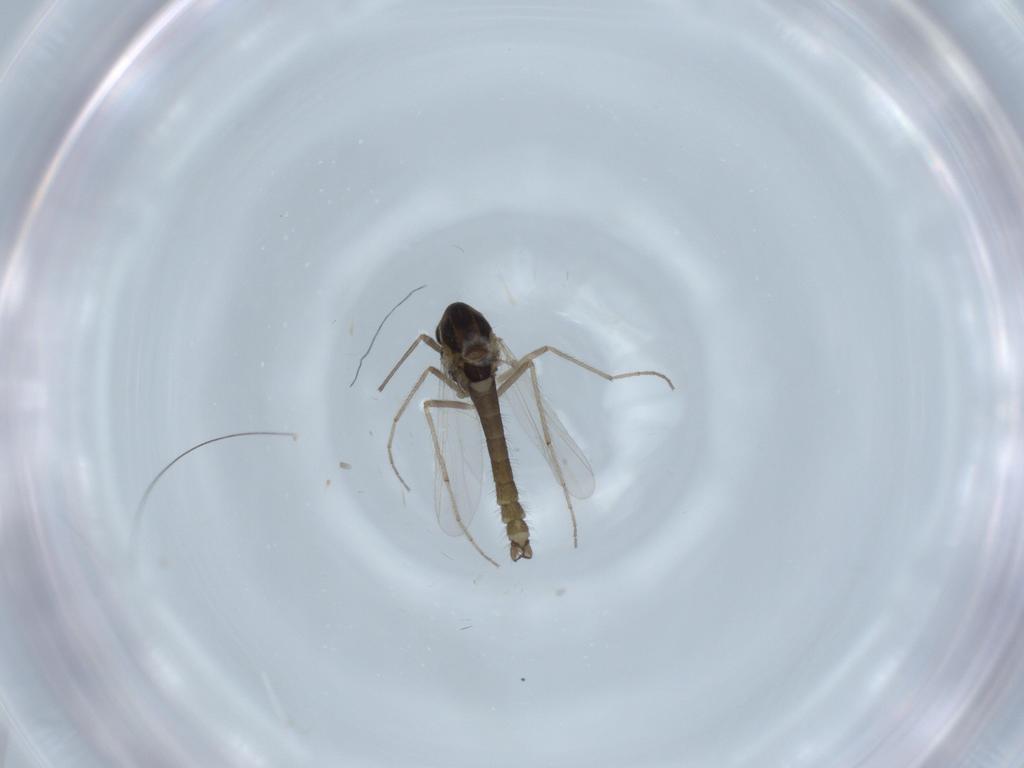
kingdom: Animalia
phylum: Arthropoda
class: Insecta
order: Diptera
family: Chironomidae
